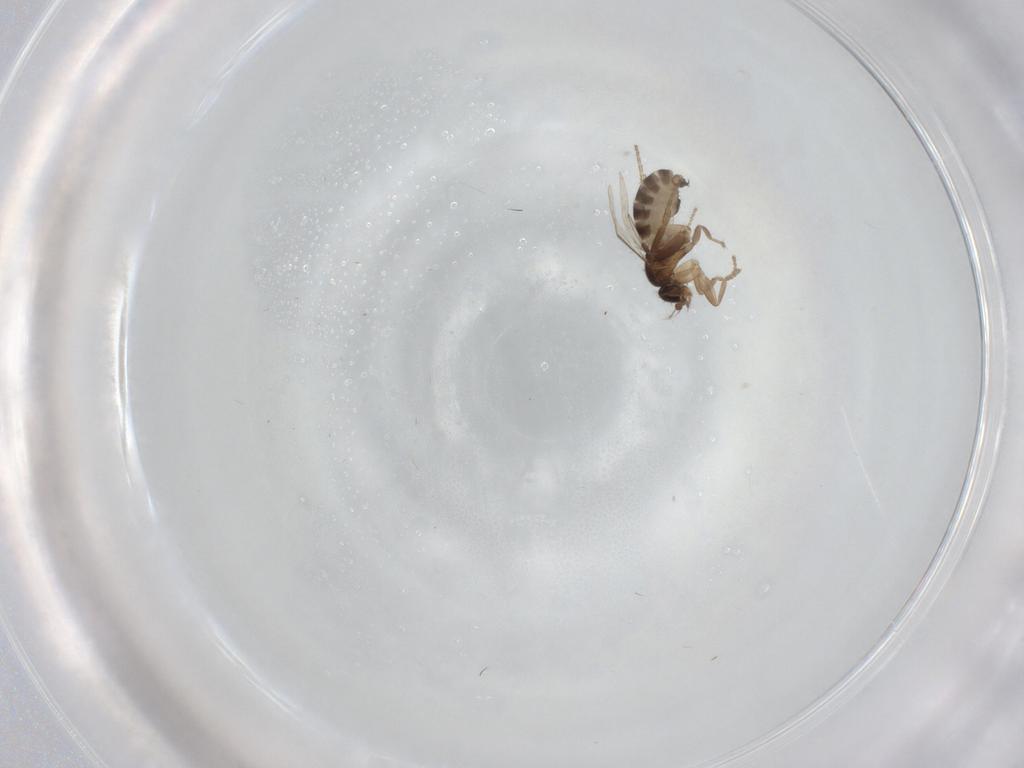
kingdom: Animalia
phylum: Arthropoda
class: Insecta
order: Diptera
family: Phoridae
